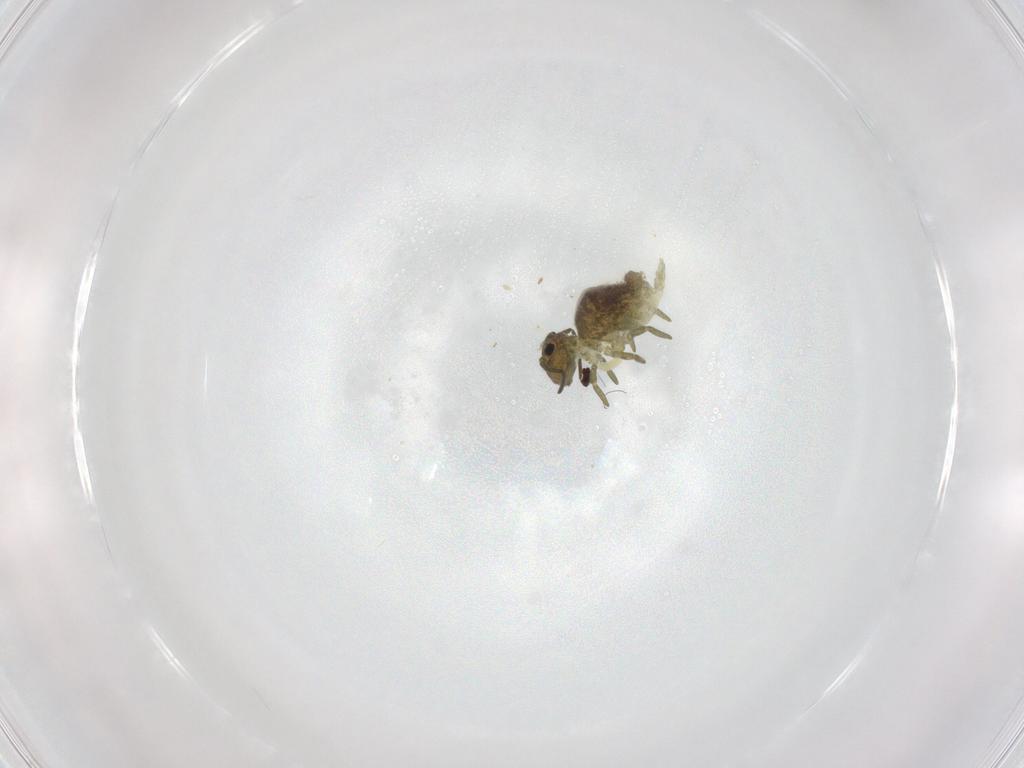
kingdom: Animalia
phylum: Arthropoda
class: Collembola
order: Symphypleona
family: Sminthuridae
